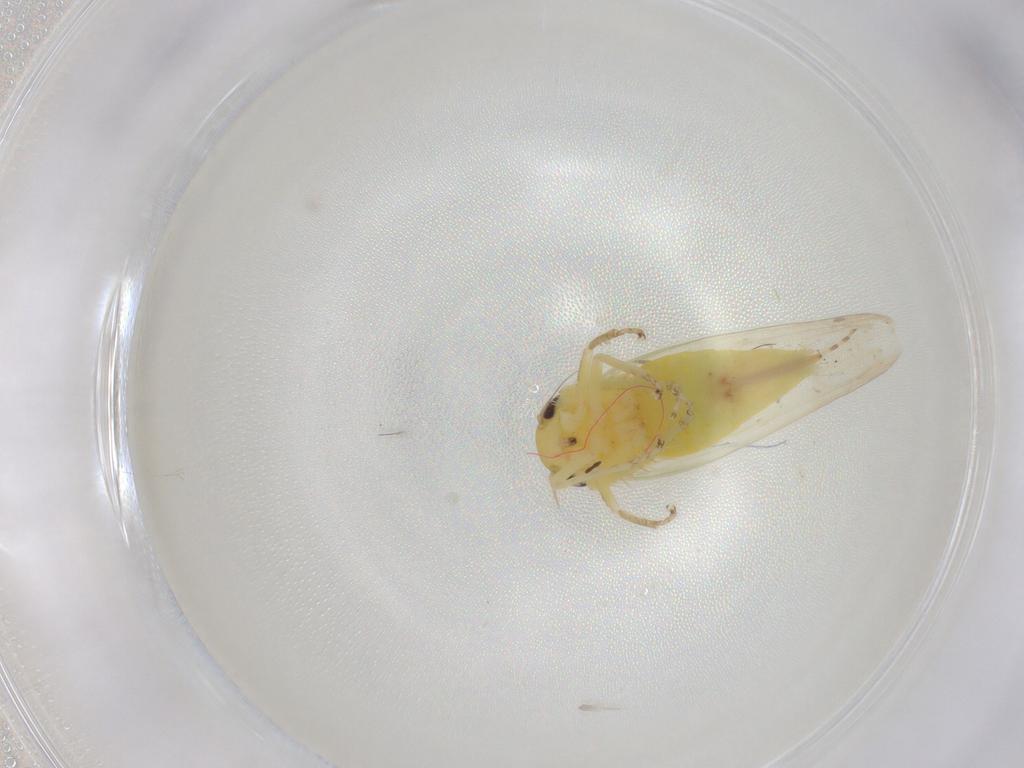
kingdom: Animalia
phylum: Arthropoda
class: Insecta
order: Hemiptera
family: Cicadellidae
